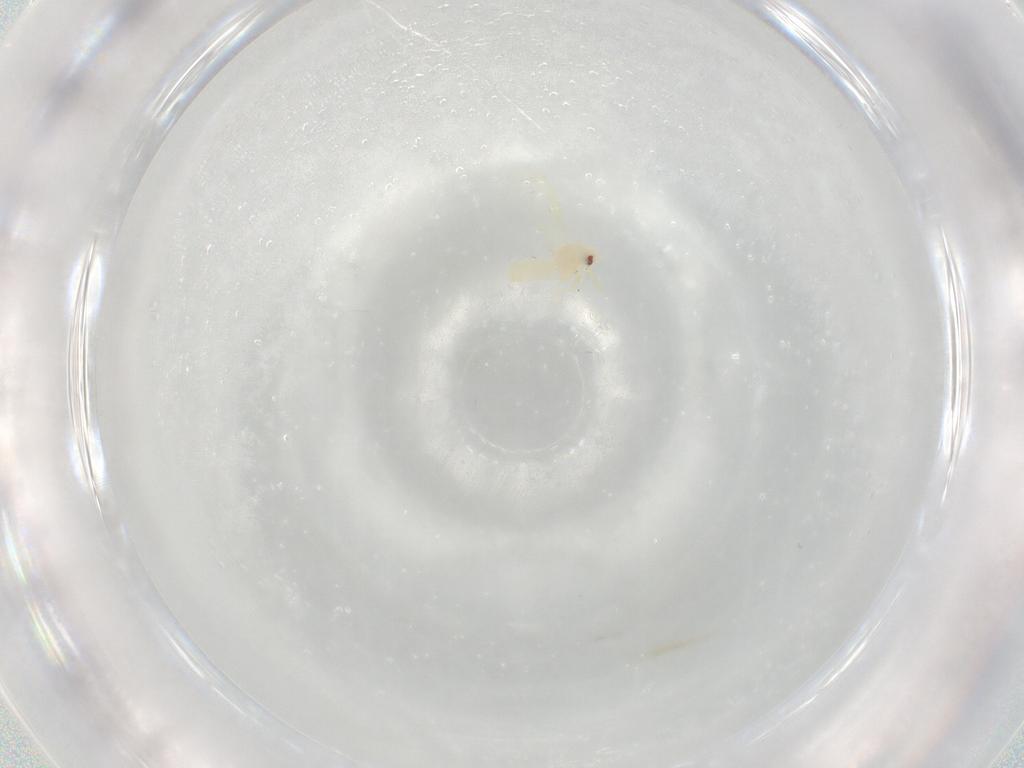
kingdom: Animalia
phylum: Arthropoda
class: Insecta
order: Hemiptera
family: Aleyrodidae
